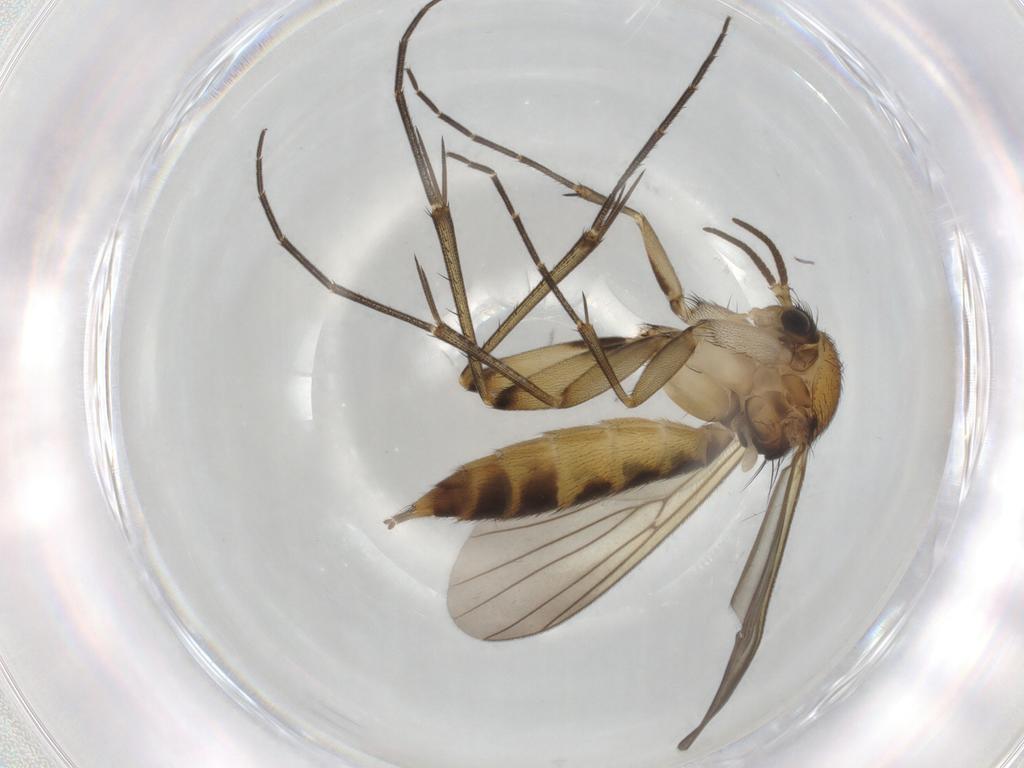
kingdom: Animalia
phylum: Arthropoda
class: Insecta
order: Diptera
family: Mycetophilidae
